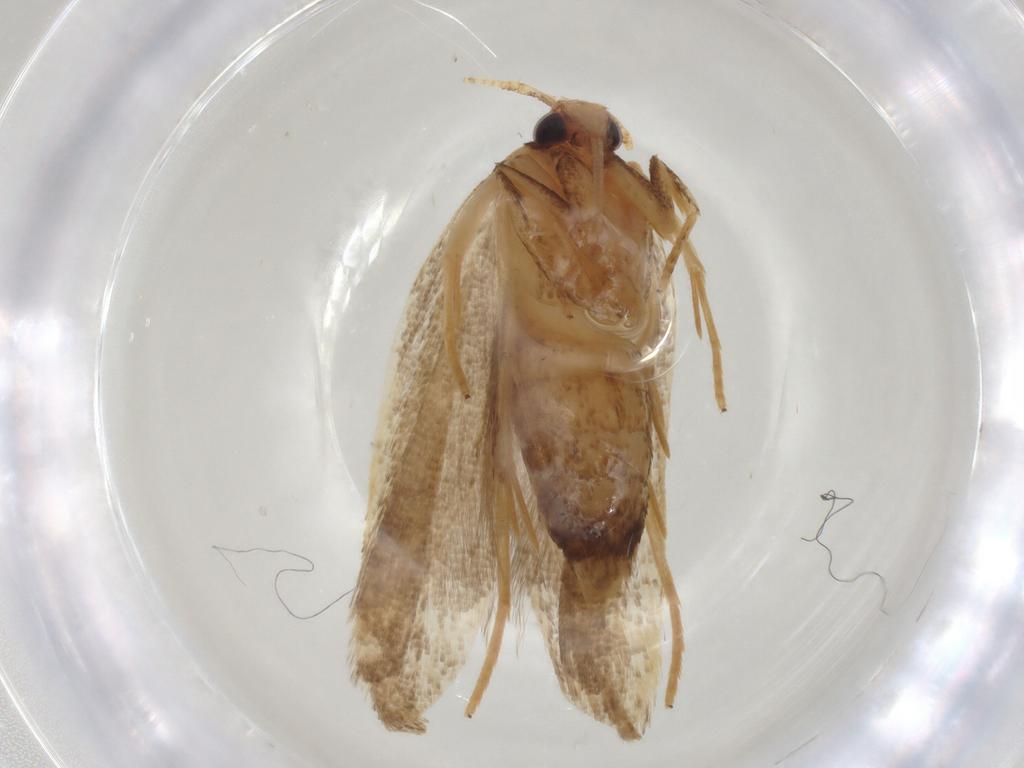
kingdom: Animalia
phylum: Arthropoda
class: Insecta
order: Lepidoptera
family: Lecithoceridae
